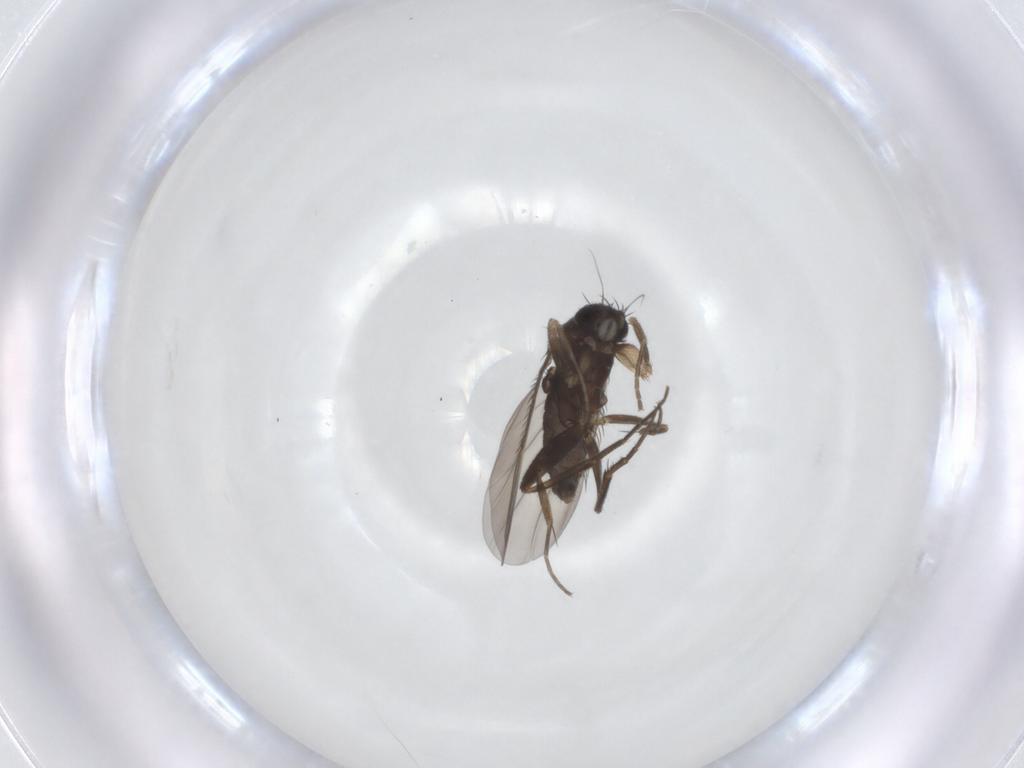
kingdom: Animalia
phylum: Arthropoda
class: Insecta
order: Diptera
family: Phoridae
